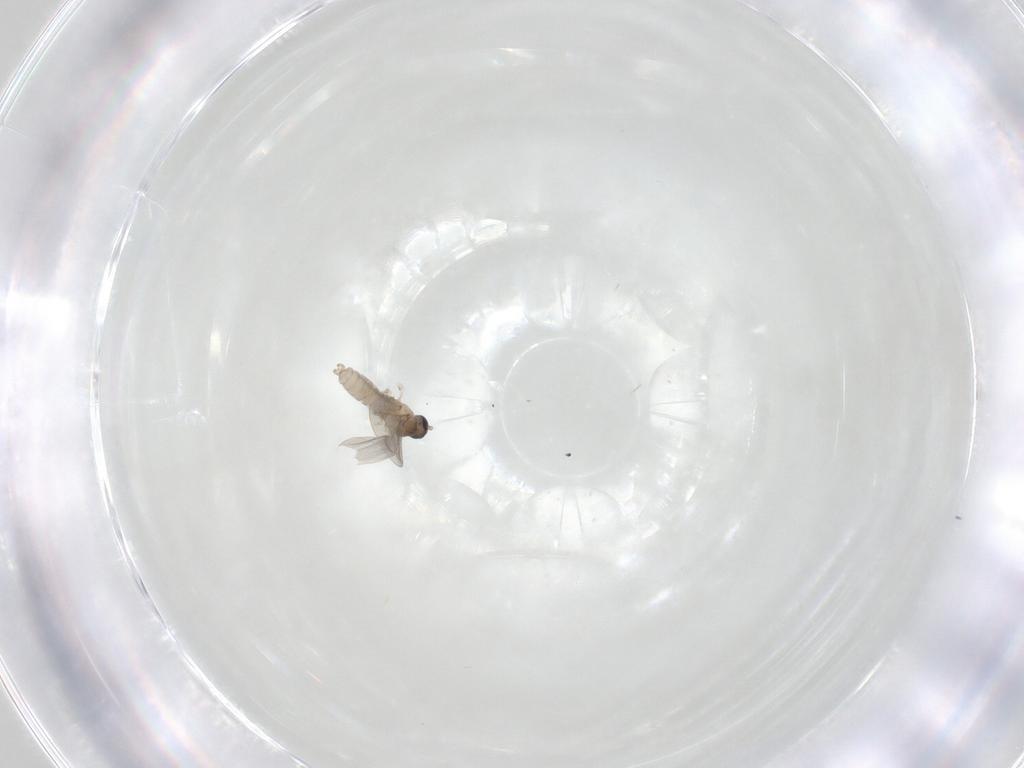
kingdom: Animalia
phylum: Arthropoda
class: Insecta
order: Diptera
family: Cecidomyiidae
